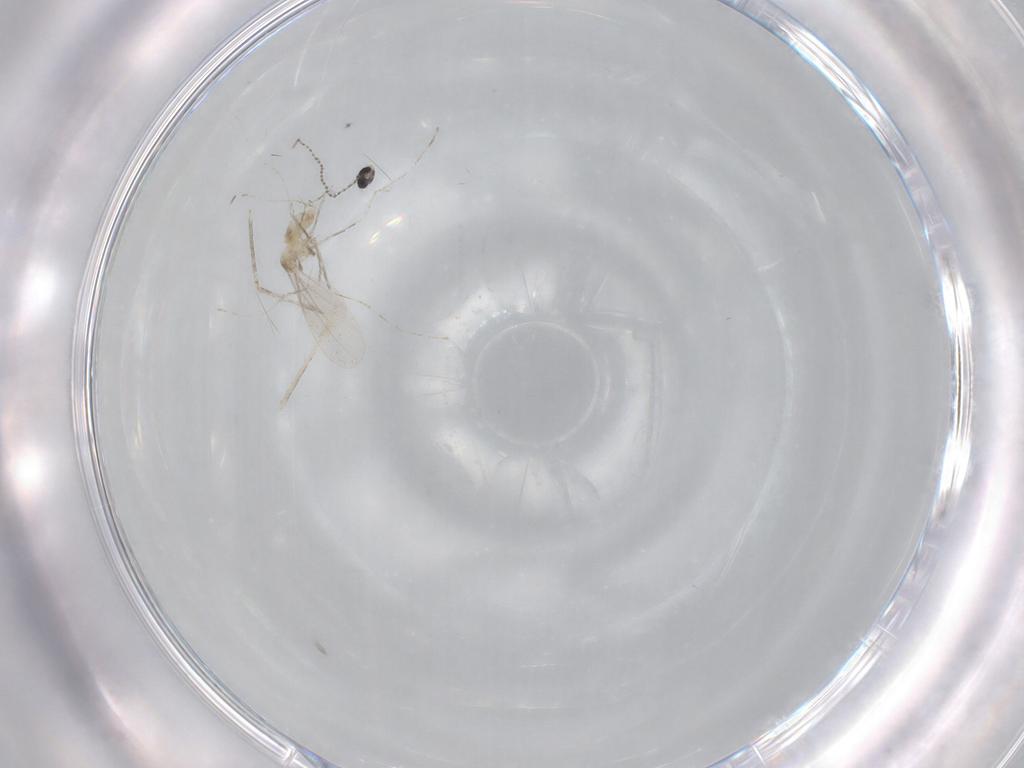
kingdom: Animalia
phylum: Arthropoda
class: Insecta
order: Diptera
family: Cecidomyiidae
